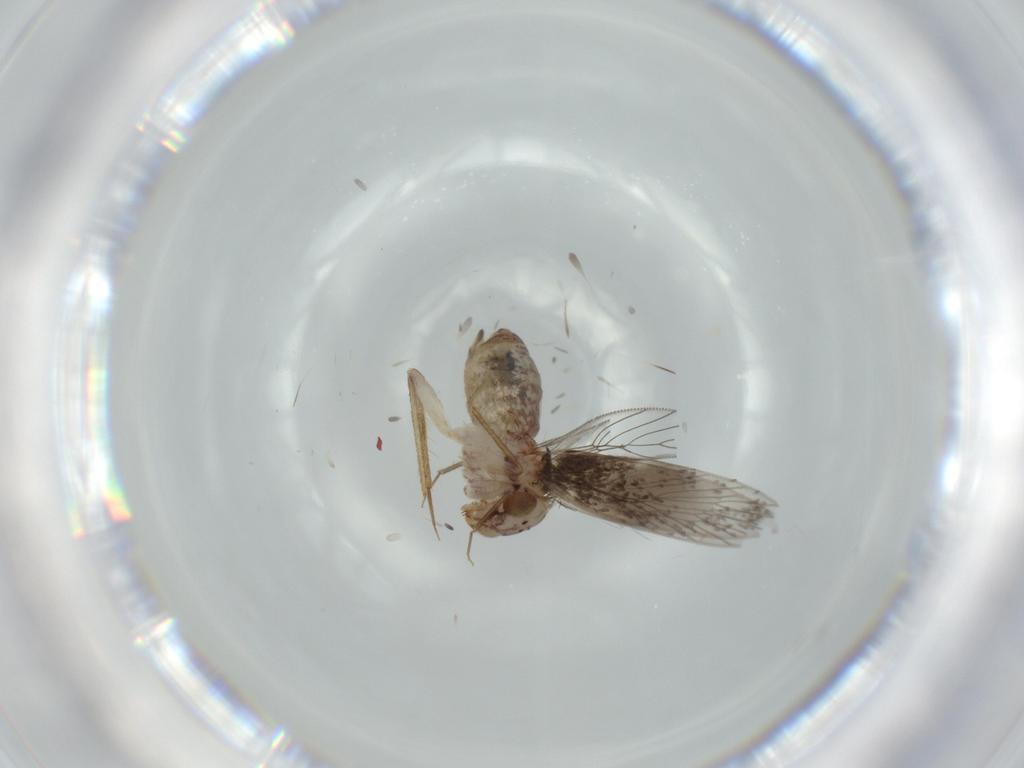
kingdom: Animalia
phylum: Arthropoda
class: Insecta
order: Psocodea
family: Lepidopsocidae
